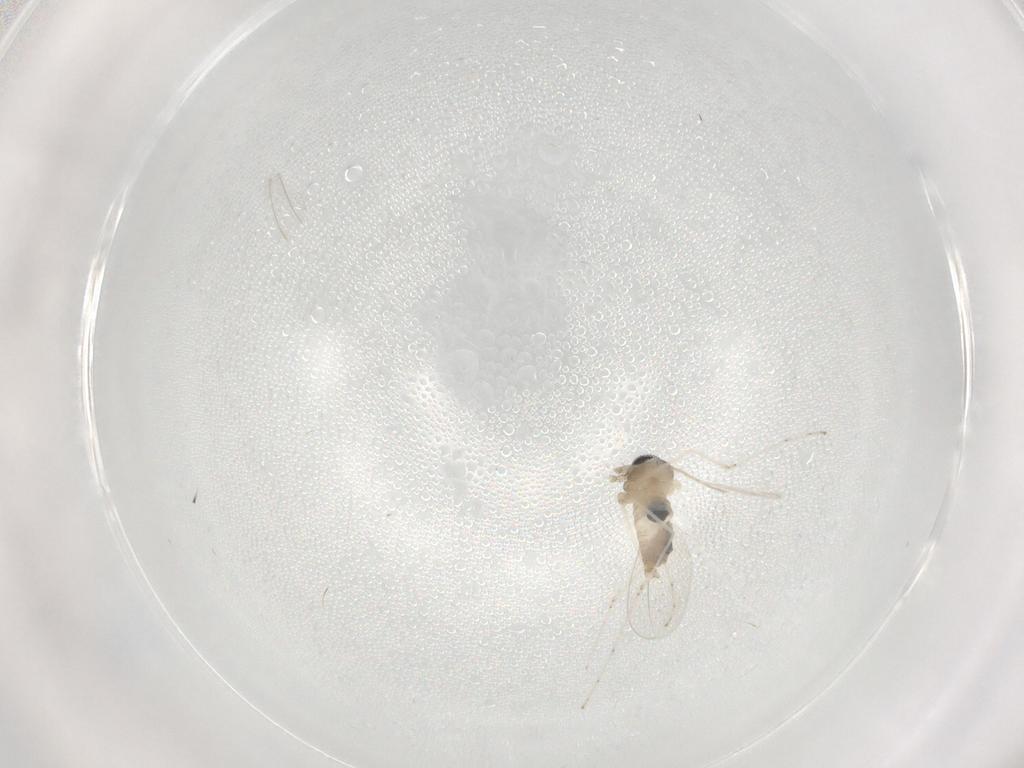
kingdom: Animalia
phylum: Arthropoda
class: Insecta
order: Diptera
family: Cecidomyiidae
